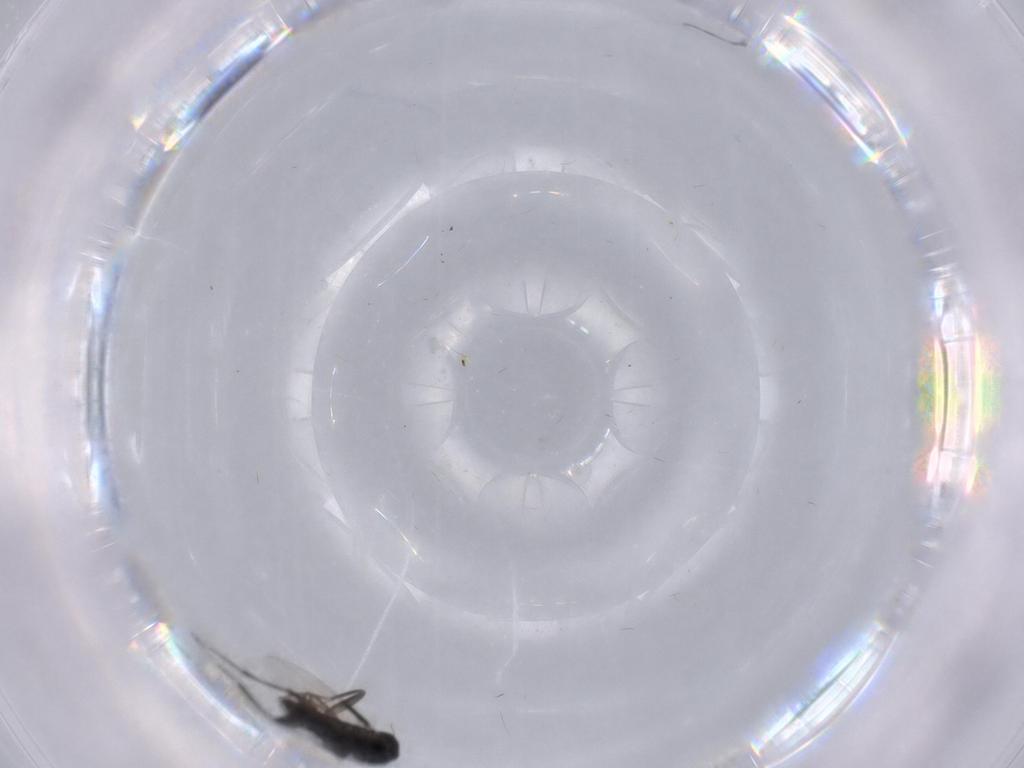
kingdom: Animalia
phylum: Arthropoda
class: Insecta
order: Diptera
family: Phoridae
